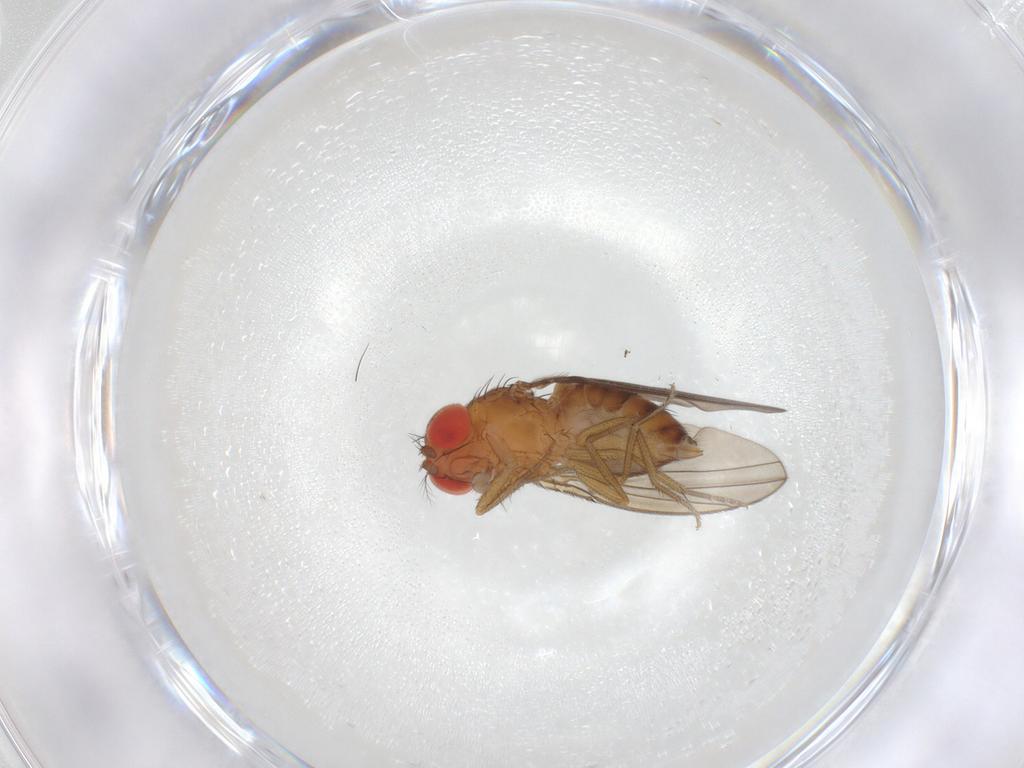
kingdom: Animalia
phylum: Arthropoda
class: Insecta
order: Diptera
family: Drosophilidae
